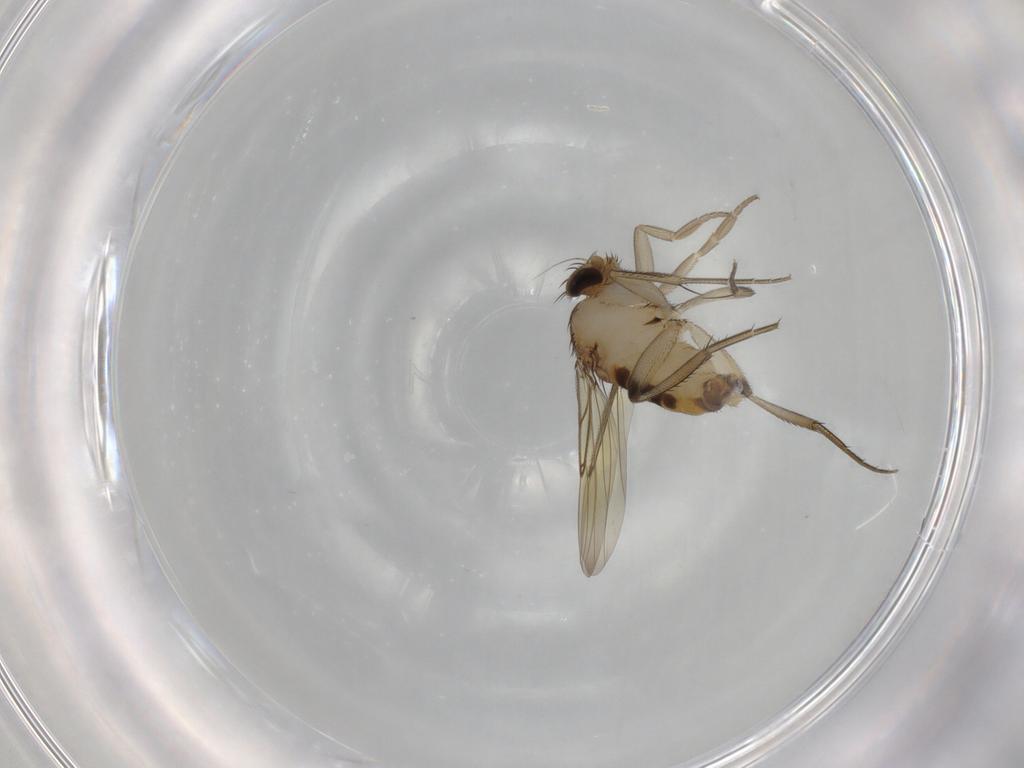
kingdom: Animalia
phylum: Arthropoda
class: Insecta
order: Diptera
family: Phoridae
